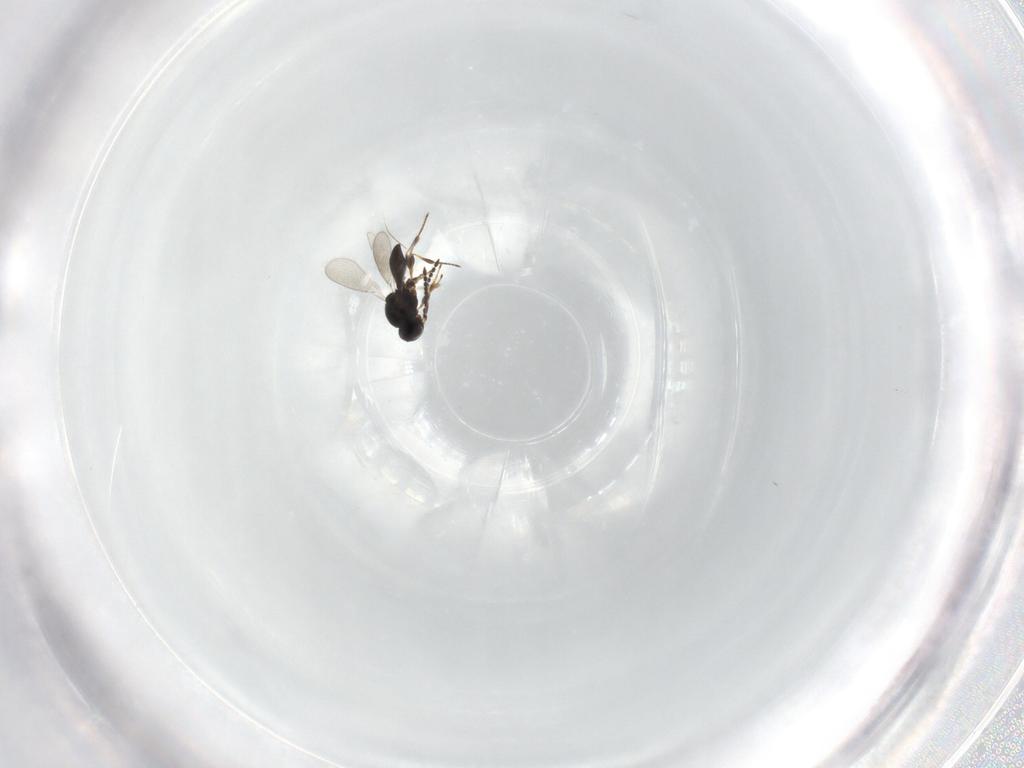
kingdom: Animalia
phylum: Arthropoda
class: Insecta
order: Hymenoptera
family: Platygastridae
